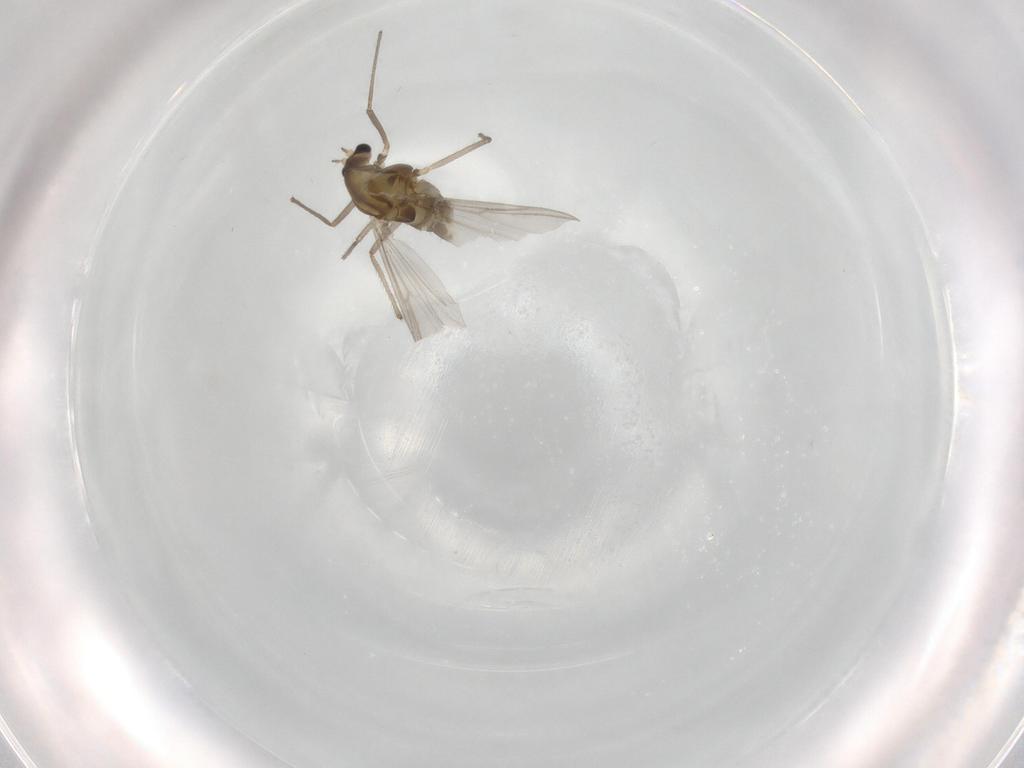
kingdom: Animalia
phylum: Arthropoda
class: Insecta
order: Diptera
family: Chironomidae
